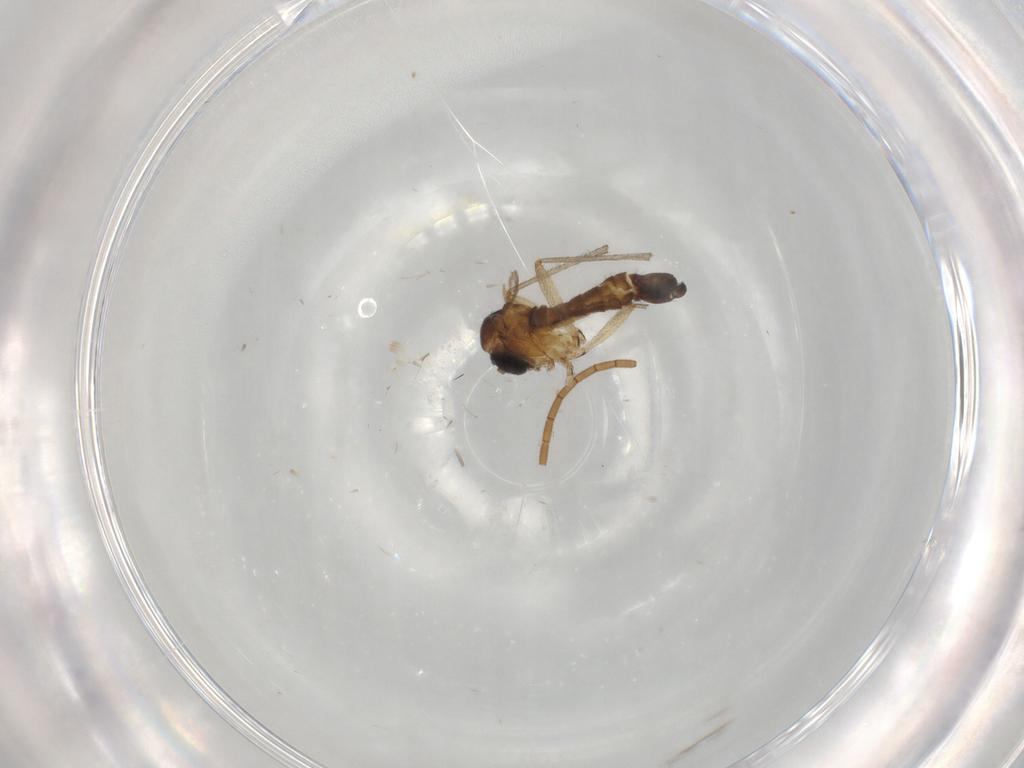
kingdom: Animalia
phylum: Arthropoda
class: Insecta
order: Diptera
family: Sciaridae
